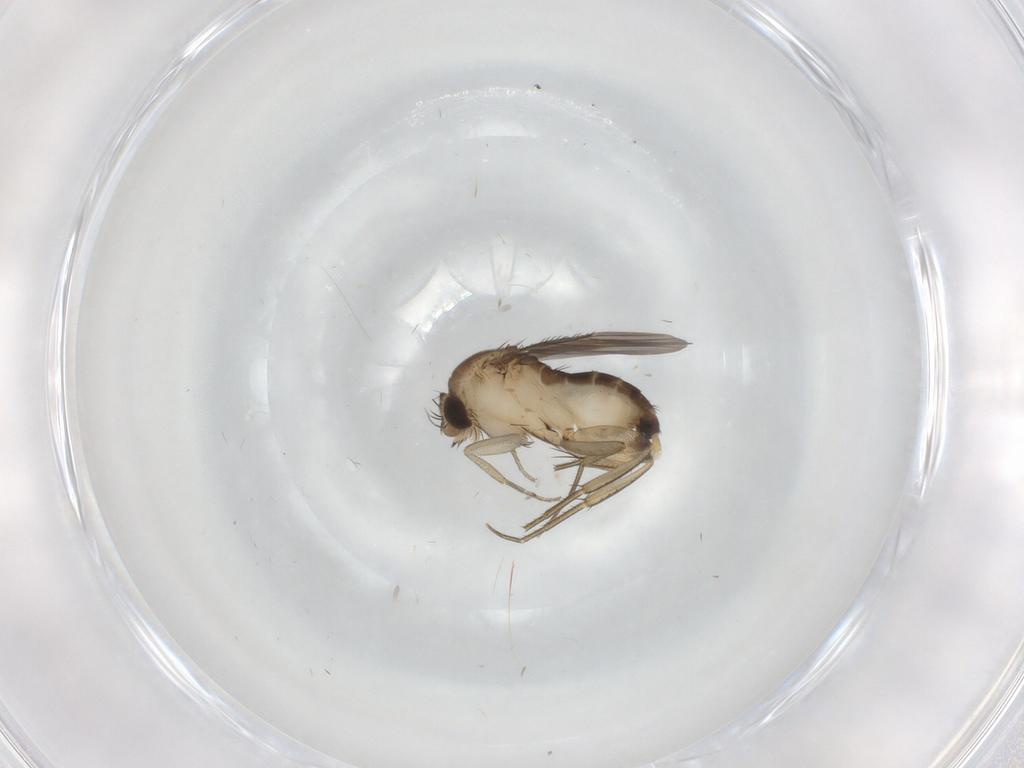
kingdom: Animalia
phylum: Arthropoda
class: Insecta
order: Diptera
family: Phoridae
